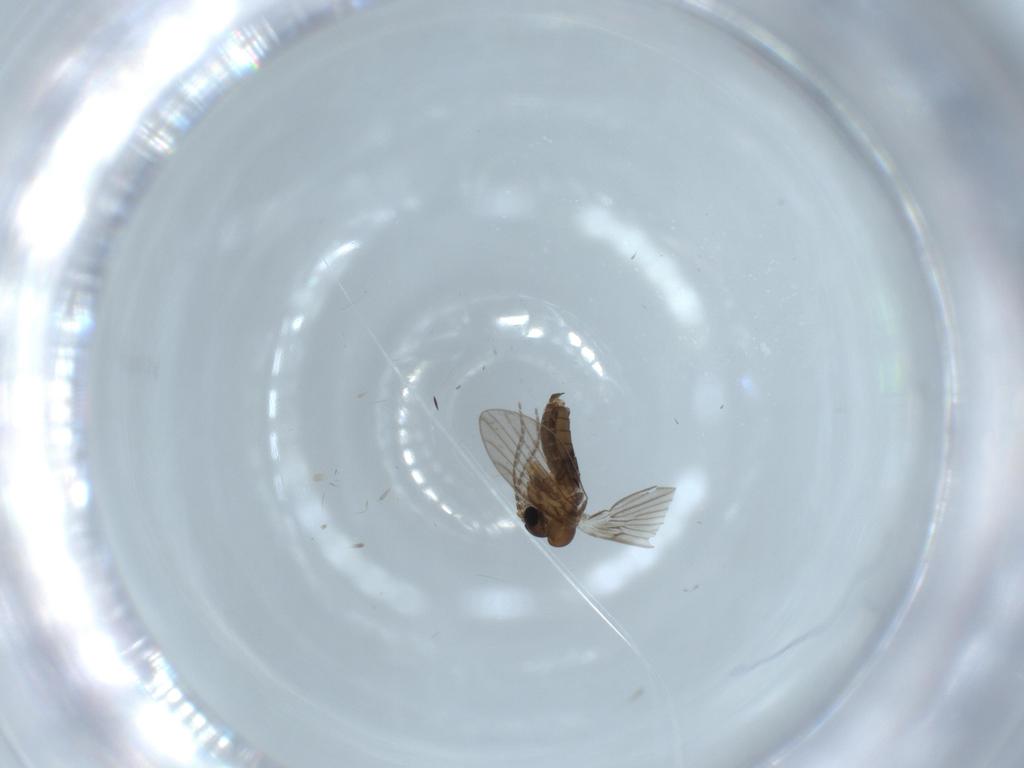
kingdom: Animalia
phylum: Arthropoda
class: Insecta
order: Diptera
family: Psychodidae
